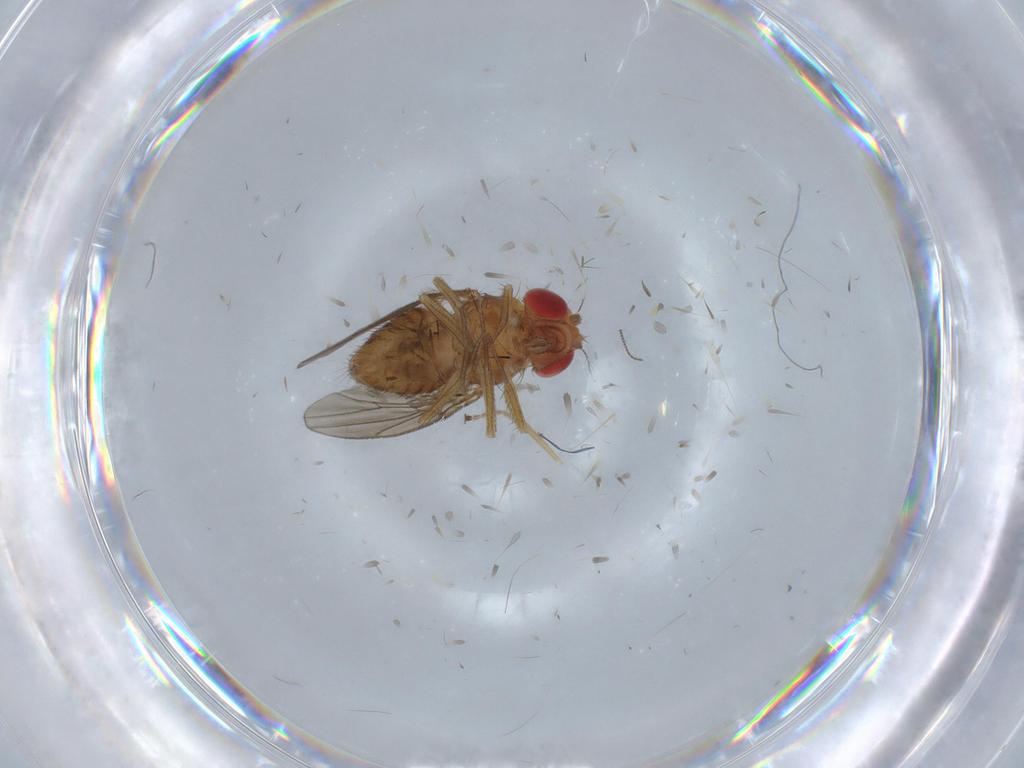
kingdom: Animalia
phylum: Arthropoda
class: Insecta
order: Diptera
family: Drosophilidae
